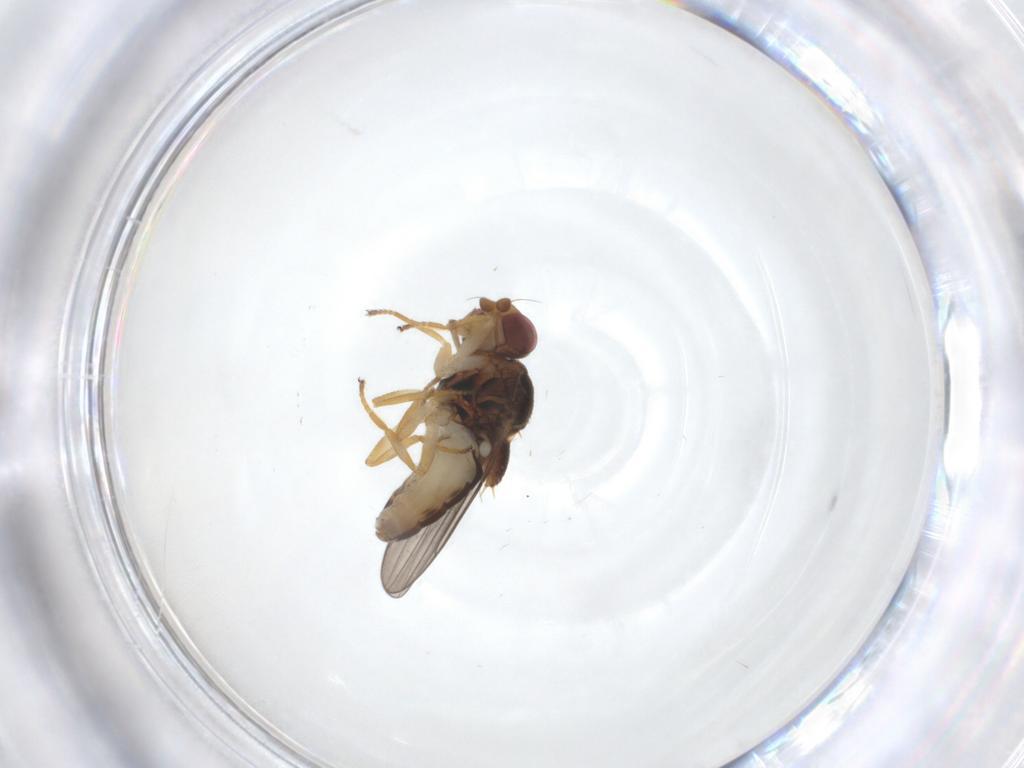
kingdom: Animalia
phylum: Arthropoda
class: Insecta
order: Diptera
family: Chloropidae
